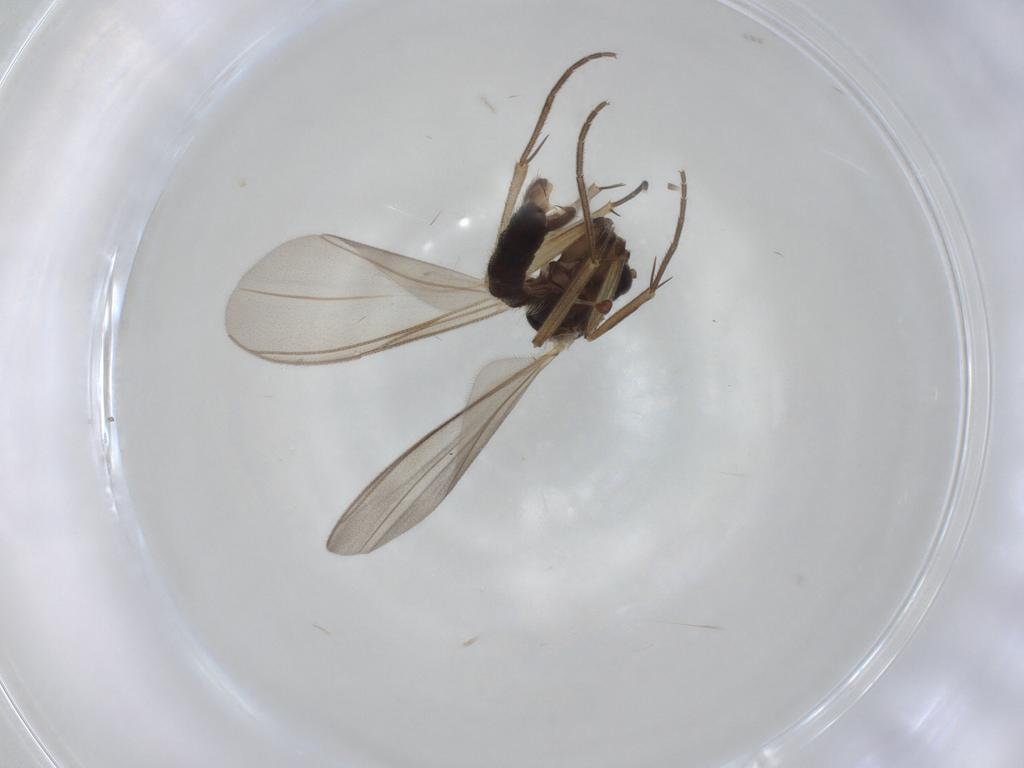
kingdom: Animalia
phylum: Arthropoda
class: Insecta
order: Diptera
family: Mycetophilidae
